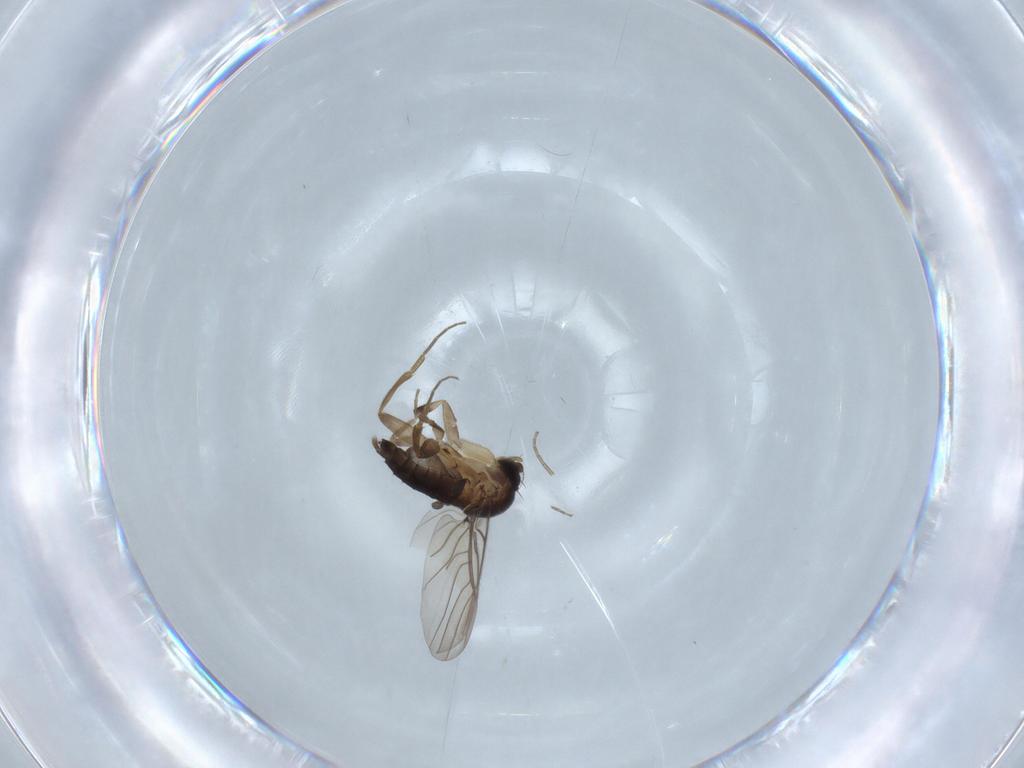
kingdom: Animalia
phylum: Arthropoda
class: Insecta
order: Diptera
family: Phoridae
